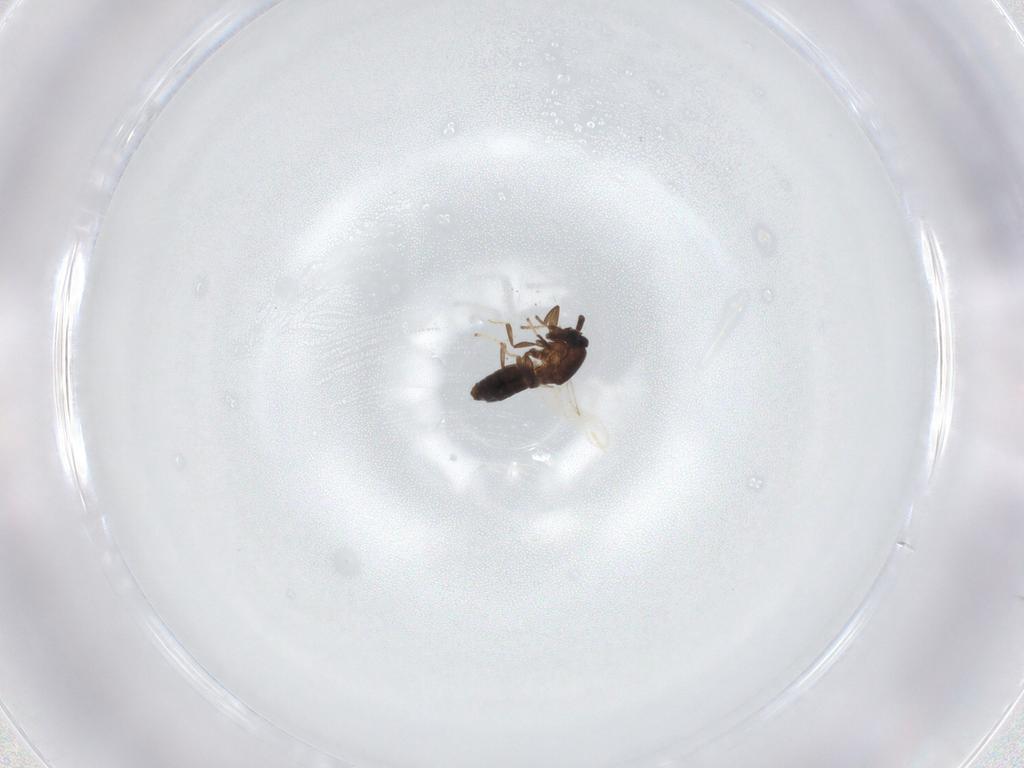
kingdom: Animalia
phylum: Arthropoda
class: Insecta
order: Diptera
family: Scatopsidae
